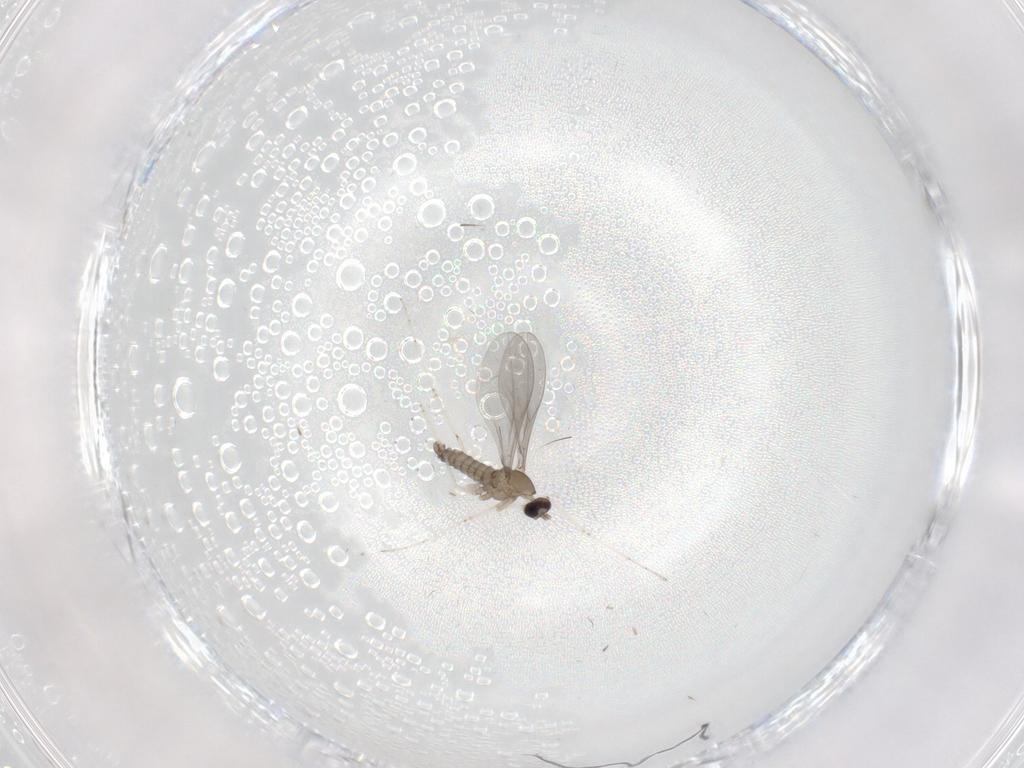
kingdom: Animalia
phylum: Arthropoda
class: Insecta
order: Diptera
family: Cecidomyiidae
